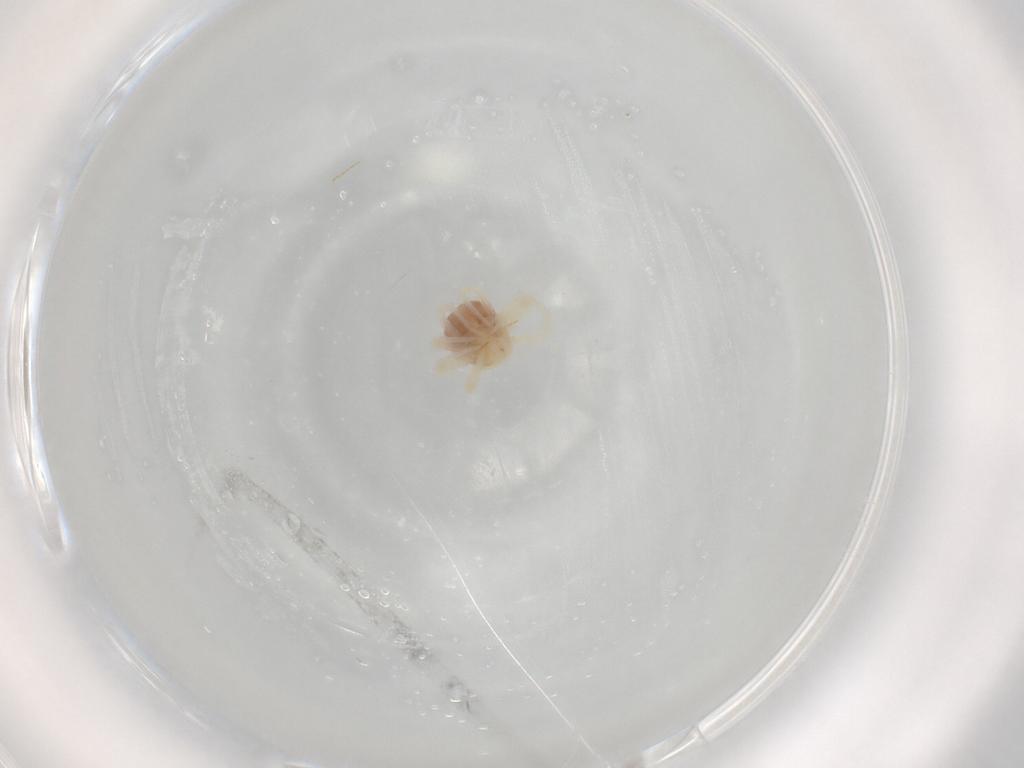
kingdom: Animalia
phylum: Arthropoda
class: Arachnida
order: Trombidiformes
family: Anystidae
